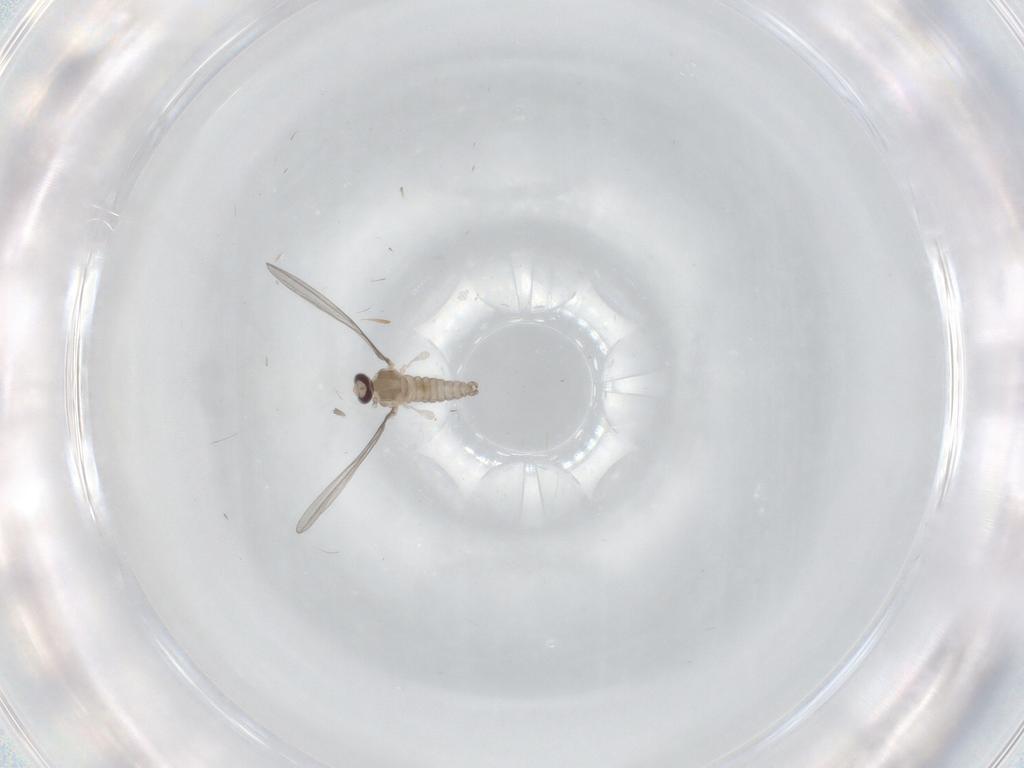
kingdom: Animalia
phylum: Arthropoda
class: Insecta
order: Diptera
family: Cecidomyiidae
